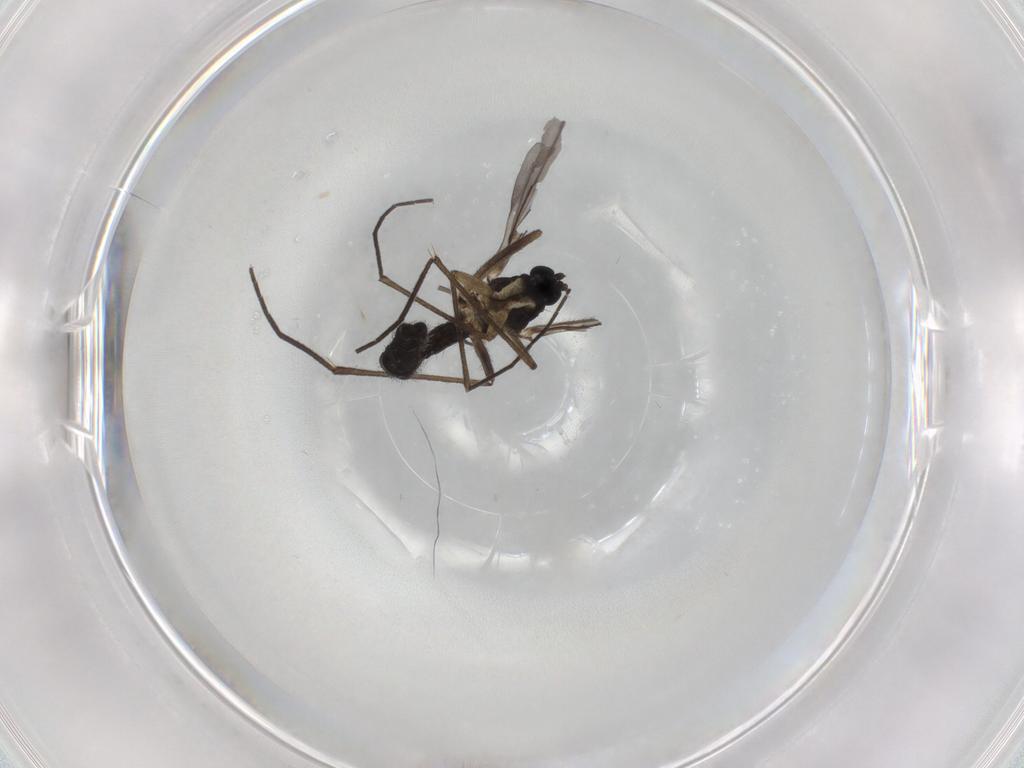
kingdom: Animalia
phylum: Arthropoda
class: Insecta
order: Diptera
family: Sciaridae
